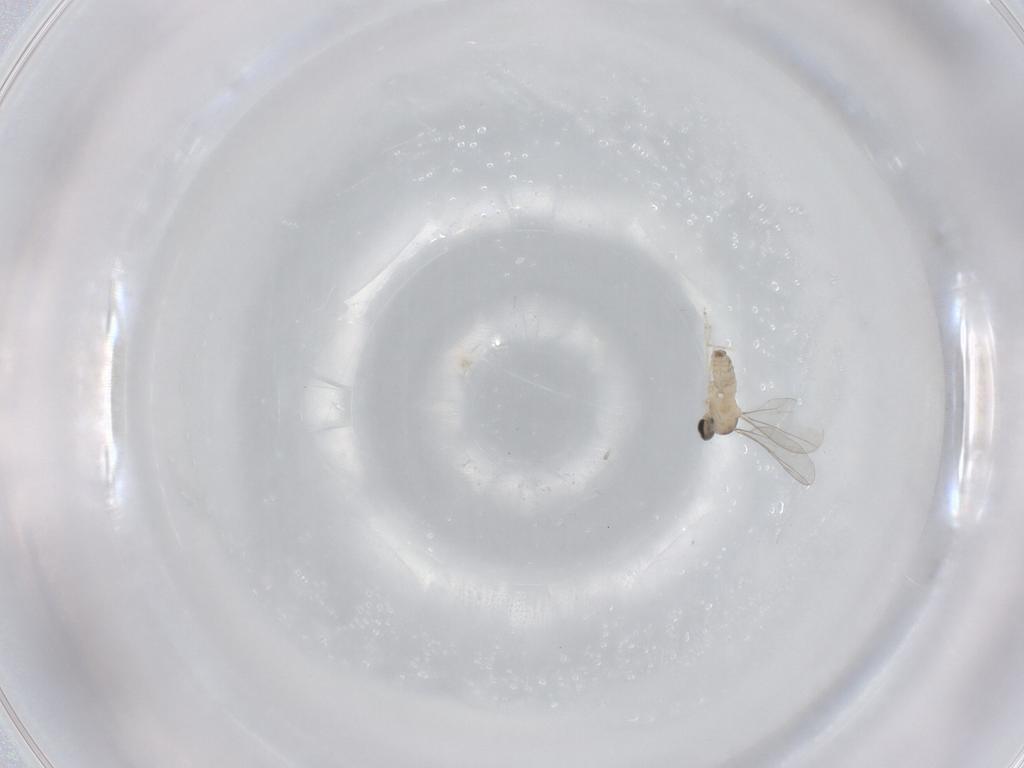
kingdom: Animalia
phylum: Arthropoda
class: Insecta
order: Diptera
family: Cecidomyiidae
